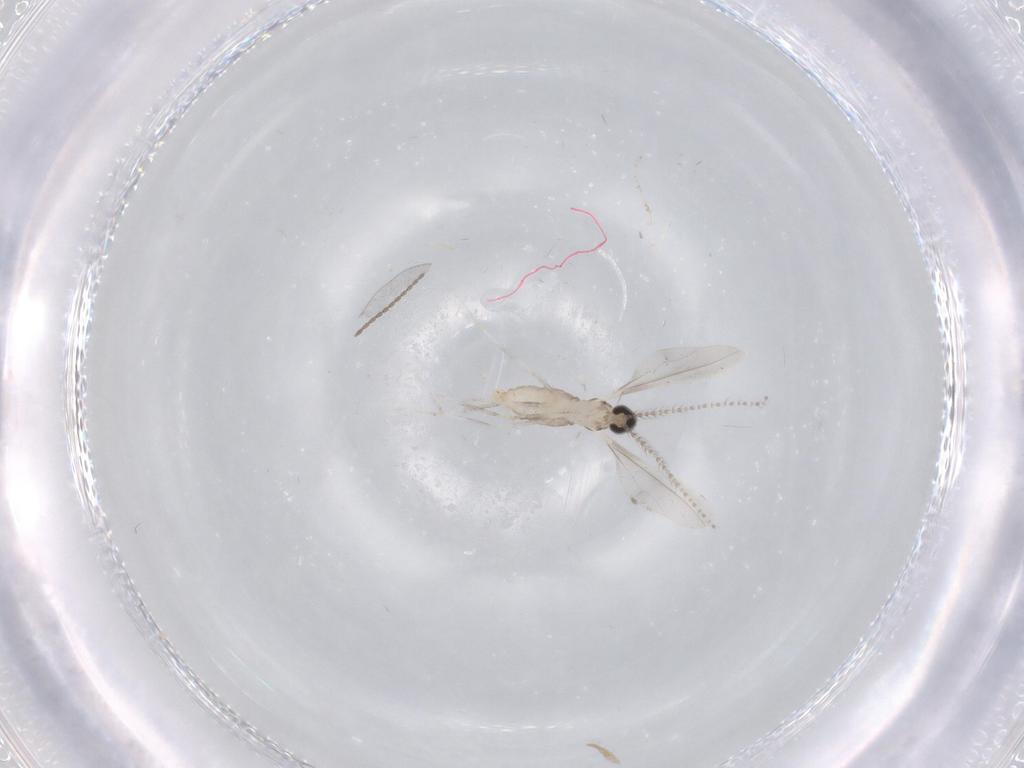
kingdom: Animalia
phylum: Arthropoda
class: Insecta
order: Diptera
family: Cecidomyiidae
